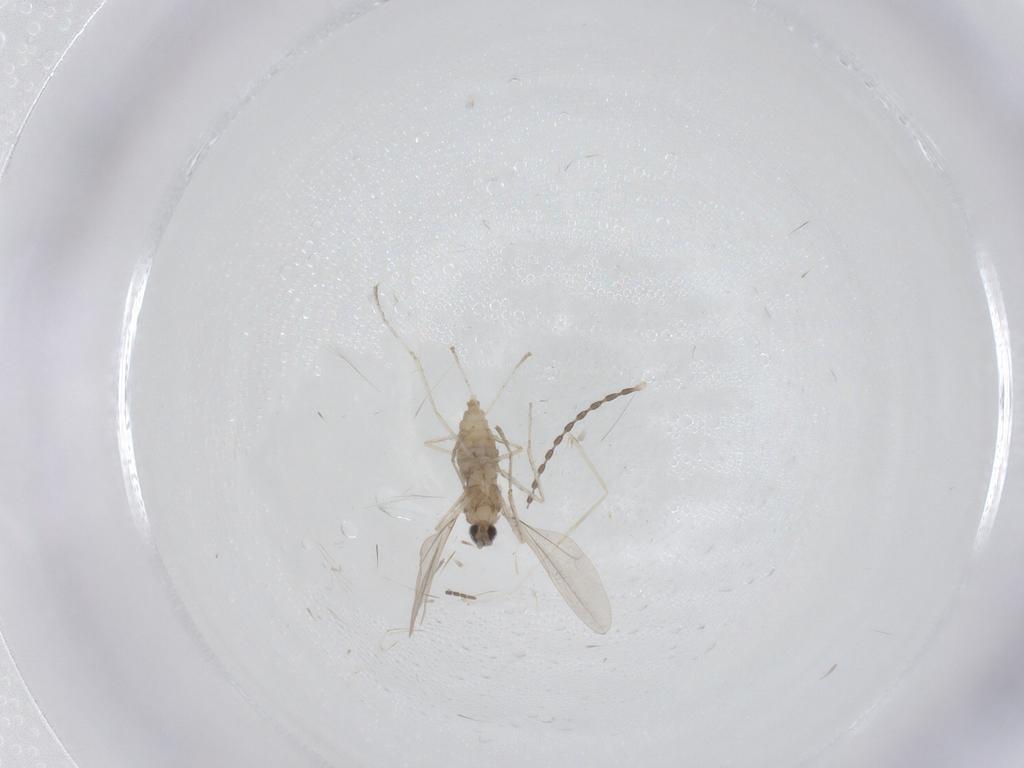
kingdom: Animalia
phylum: Arthropoda
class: Insecta
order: Diptera
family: Cecidomyiidae
